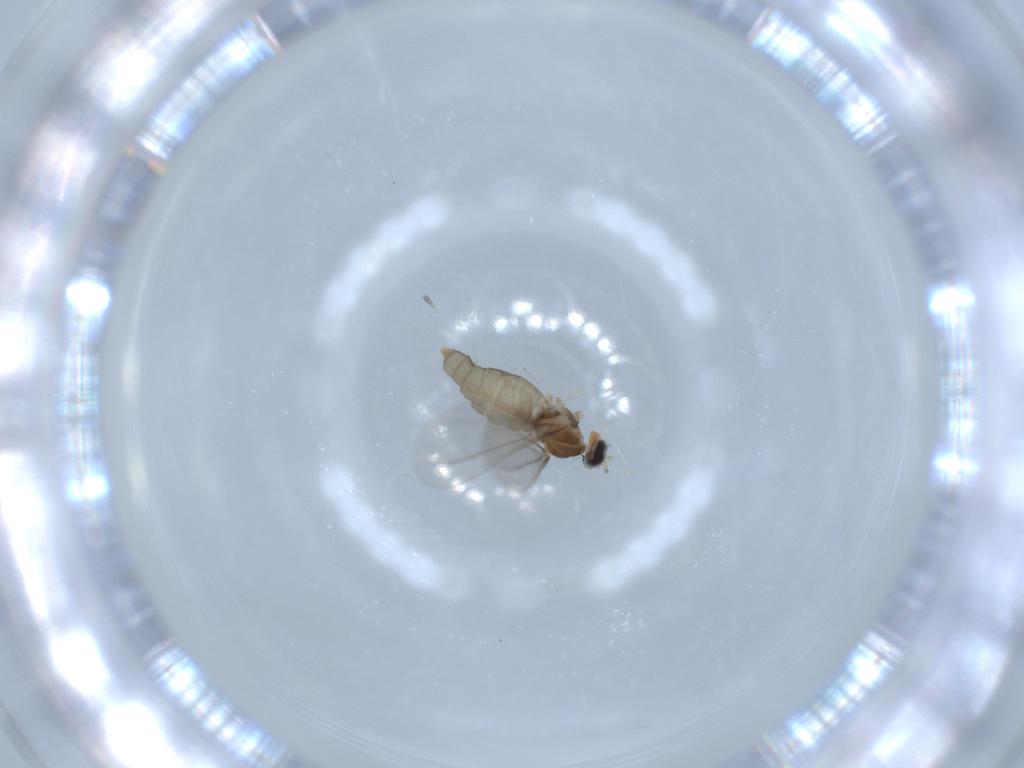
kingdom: Animalia
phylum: Arthropoda
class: Insecta
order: Diptera
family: Cecidomyiidae
